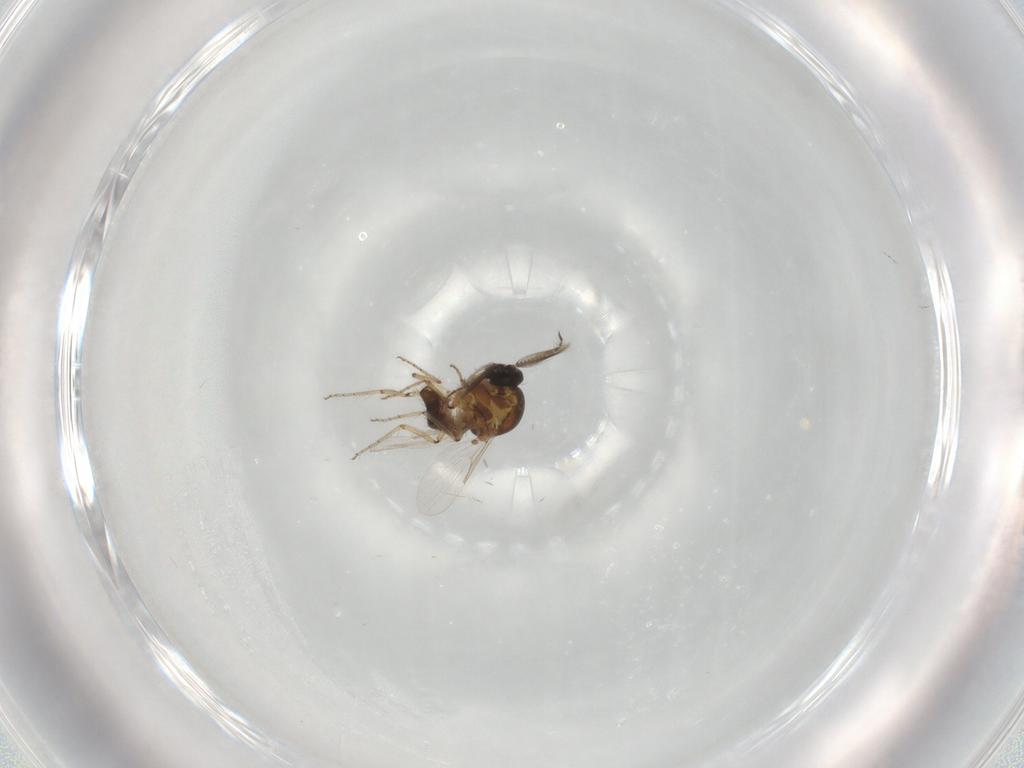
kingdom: Animalia
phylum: Arthropoda
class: Insecta
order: Diptera
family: Ceratopogonidae
